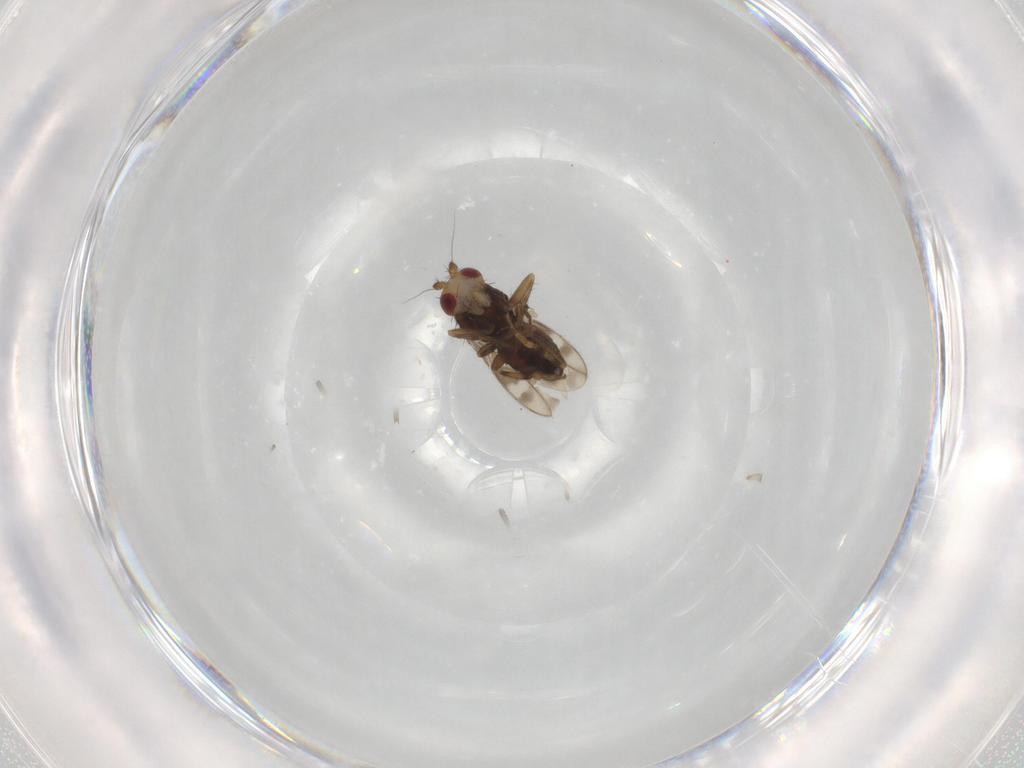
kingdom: Animalia
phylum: Arthropoda
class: Insecta
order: Diptera
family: Sphaeroceridae
